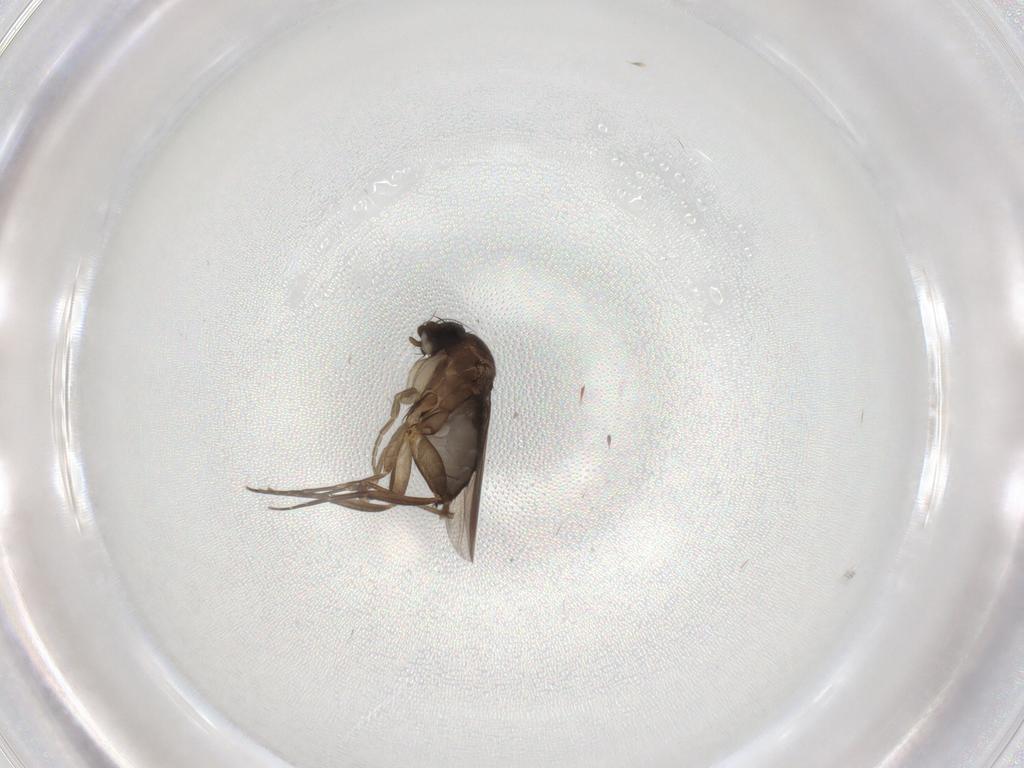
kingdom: Animalia
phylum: Arthropoda
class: Insecta
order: Diptera
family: Phoridae
